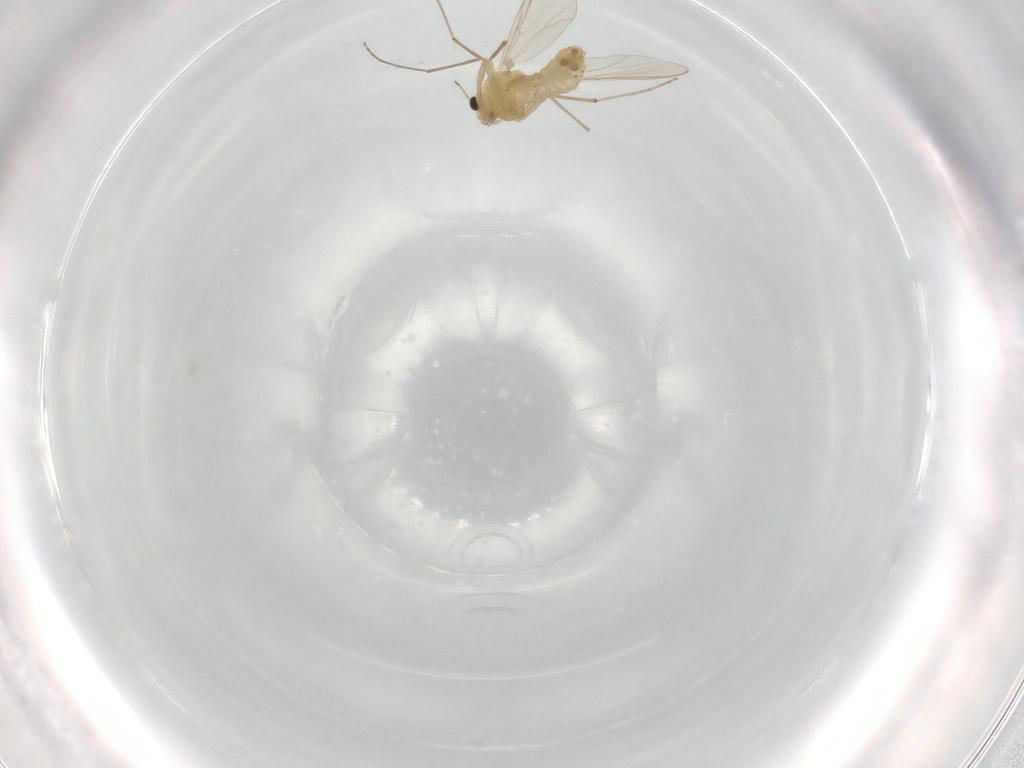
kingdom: Animalia
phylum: Arthropoda
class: Insecta
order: Diptera
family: Chironomidae
